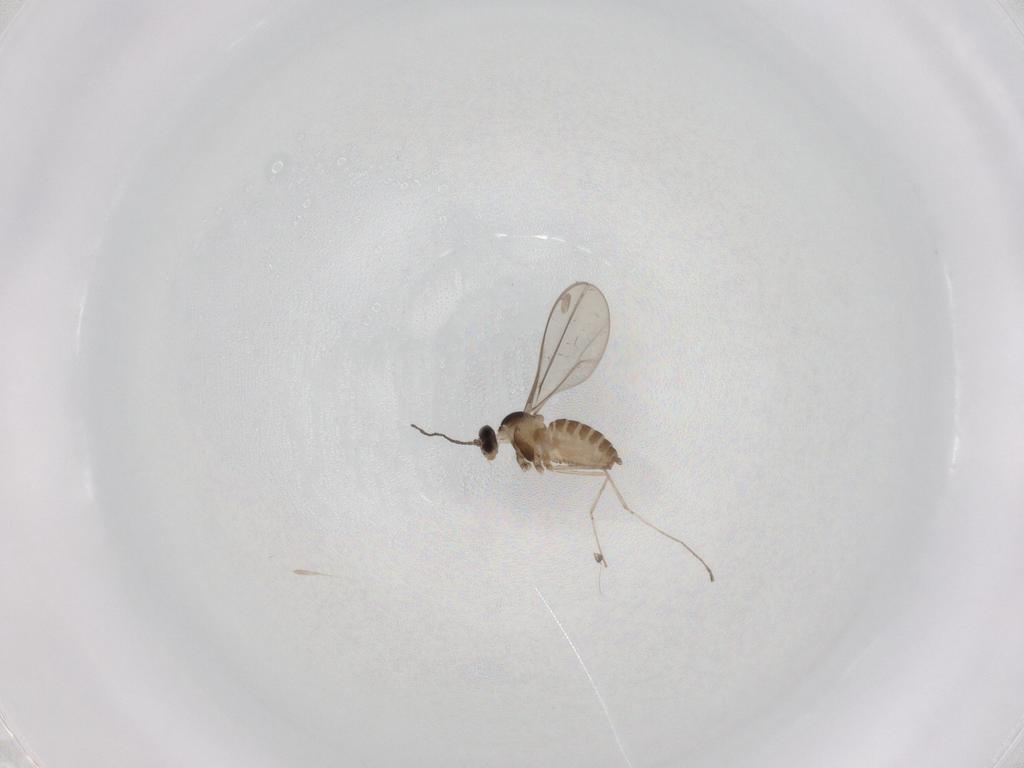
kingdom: Animalia
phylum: Arthropoda
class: Insecta
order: Diptera
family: Cecidomyiidae
